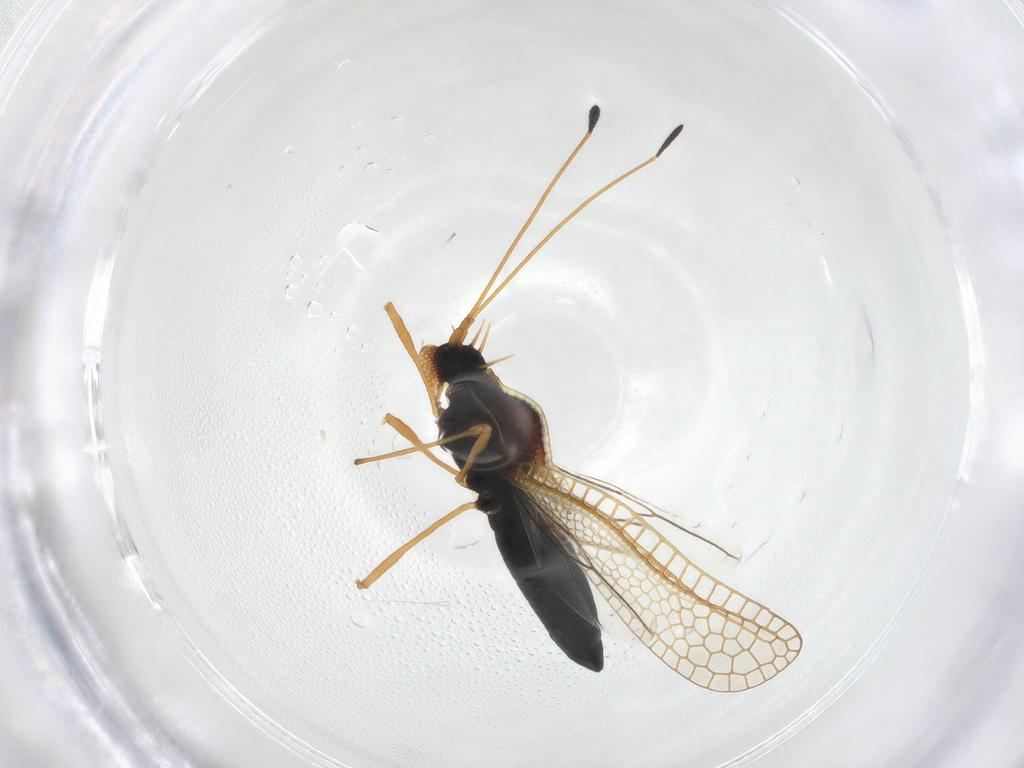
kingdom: Animalia
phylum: Arthropoda
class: Insecta
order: Hemiptera
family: Tingidae
